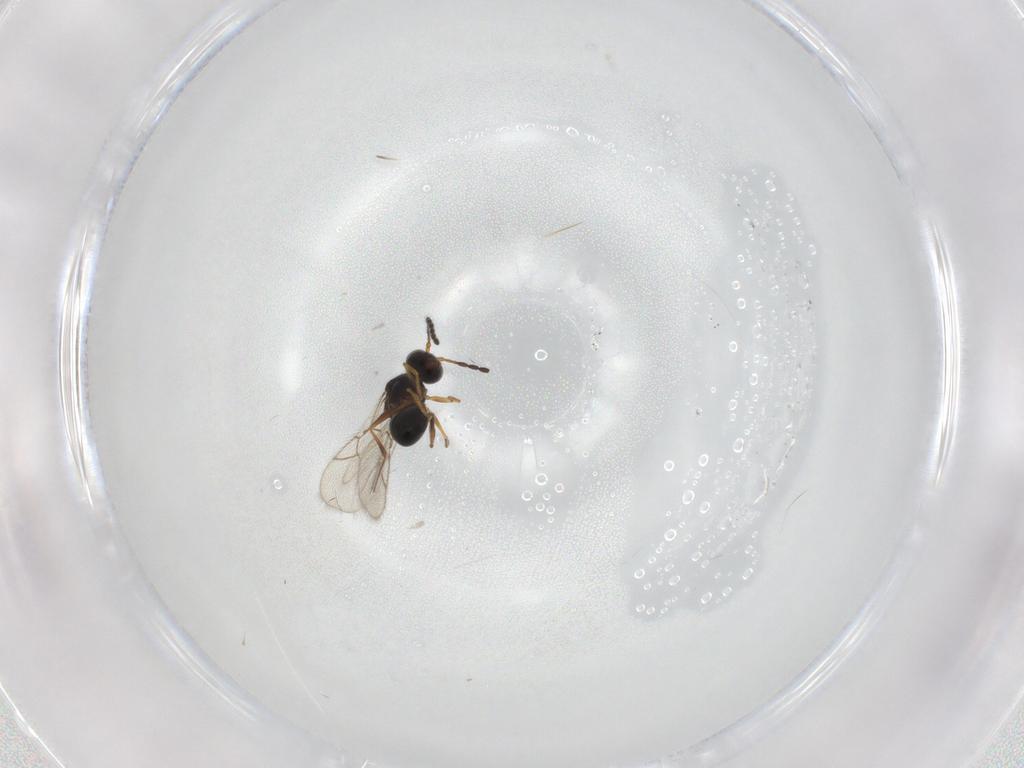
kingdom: Animalia
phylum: Arthropoda
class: Insecta
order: Hymenoptera
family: Figitidae
